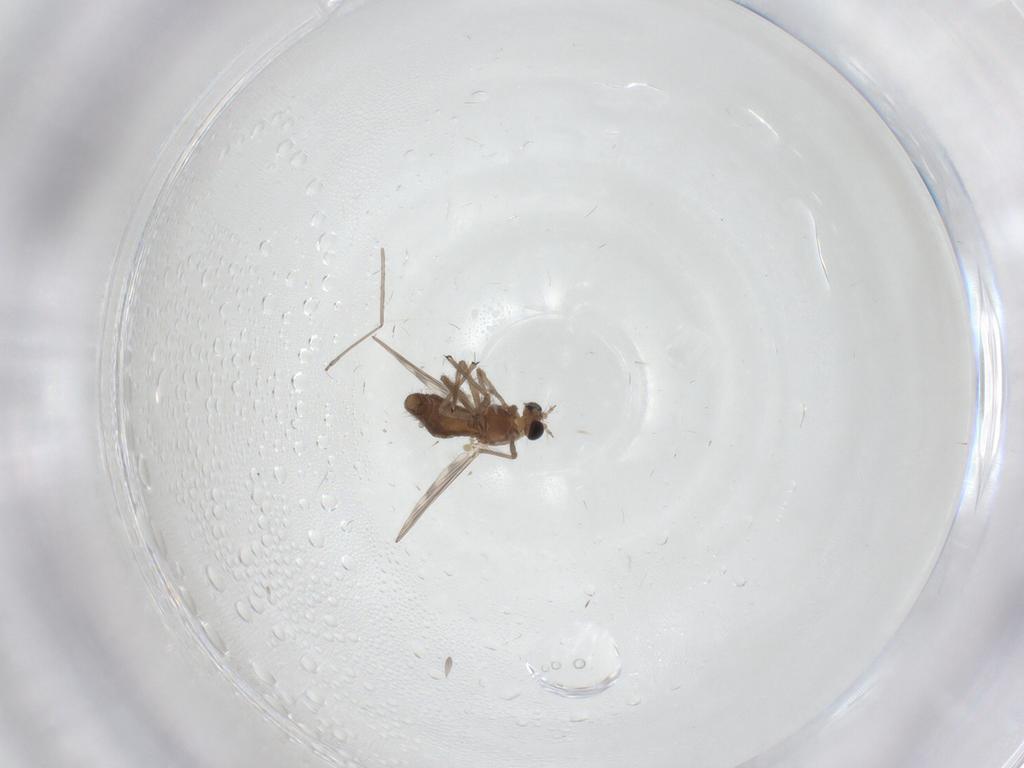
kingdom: Animalia
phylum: Arthropoda
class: Insecta
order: Diptera
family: Chironomidae
